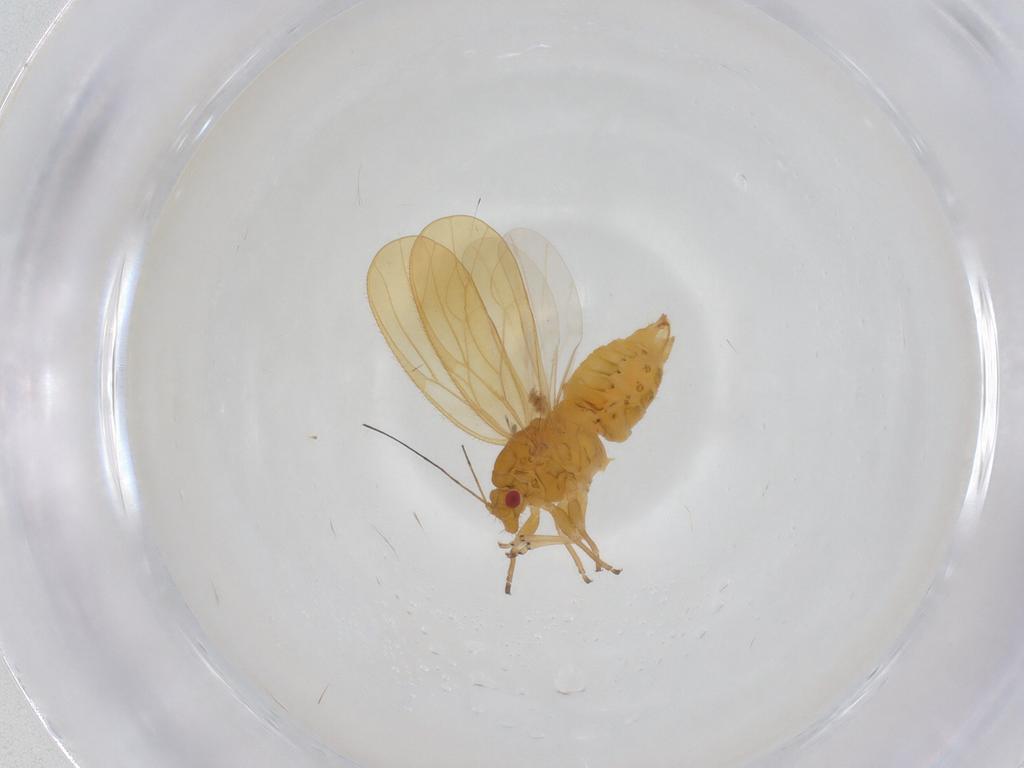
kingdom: Animalia
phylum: Arthropoda
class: Insecta
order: Hemiptera
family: Psyllidae
